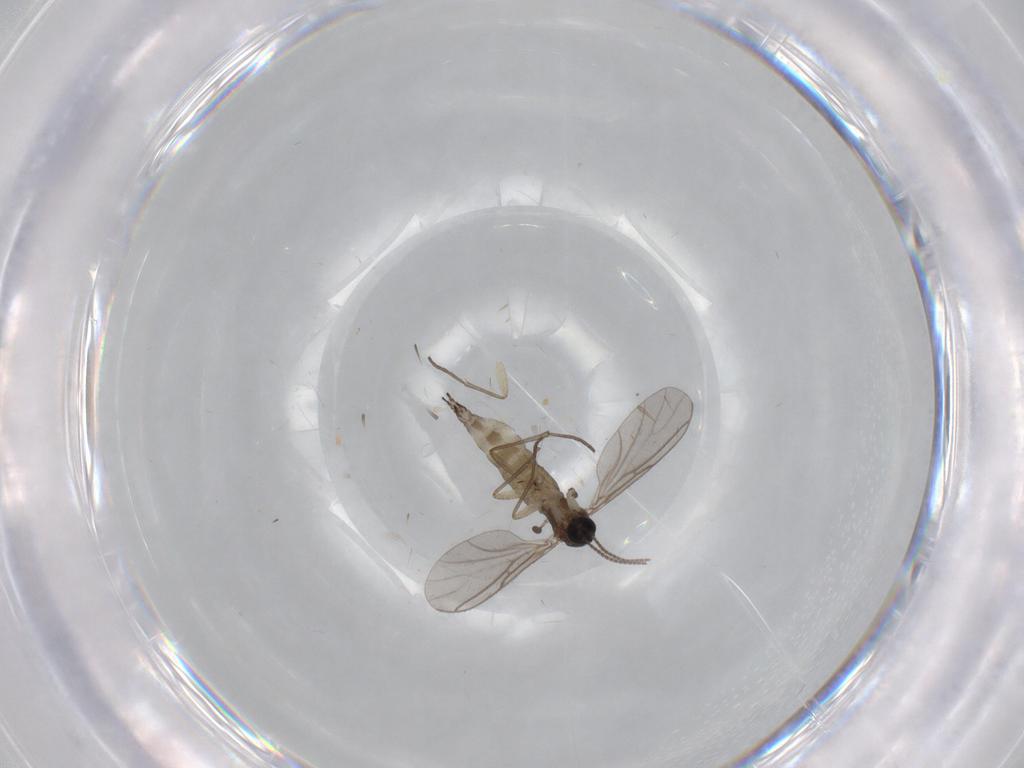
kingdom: Animalia
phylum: Arthropoda
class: Insecta
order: Diptera
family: Sciaridae
